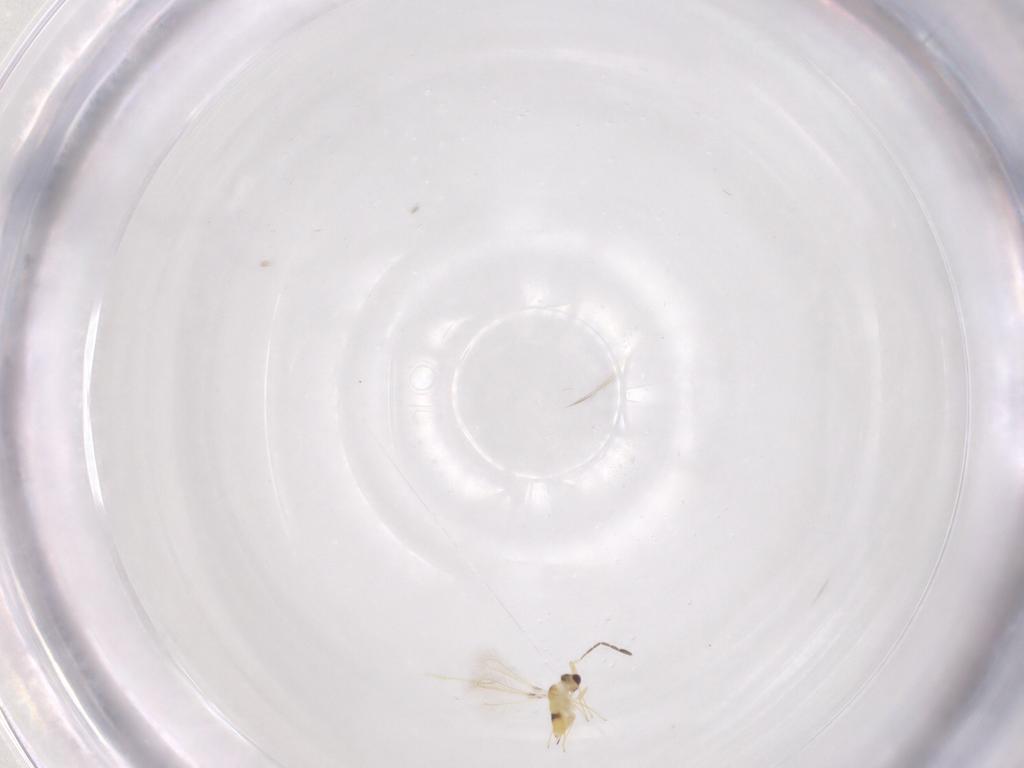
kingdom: Animalia
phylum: Arthropoda
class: Insecta
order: Hymenoptera
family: Mymaridae
